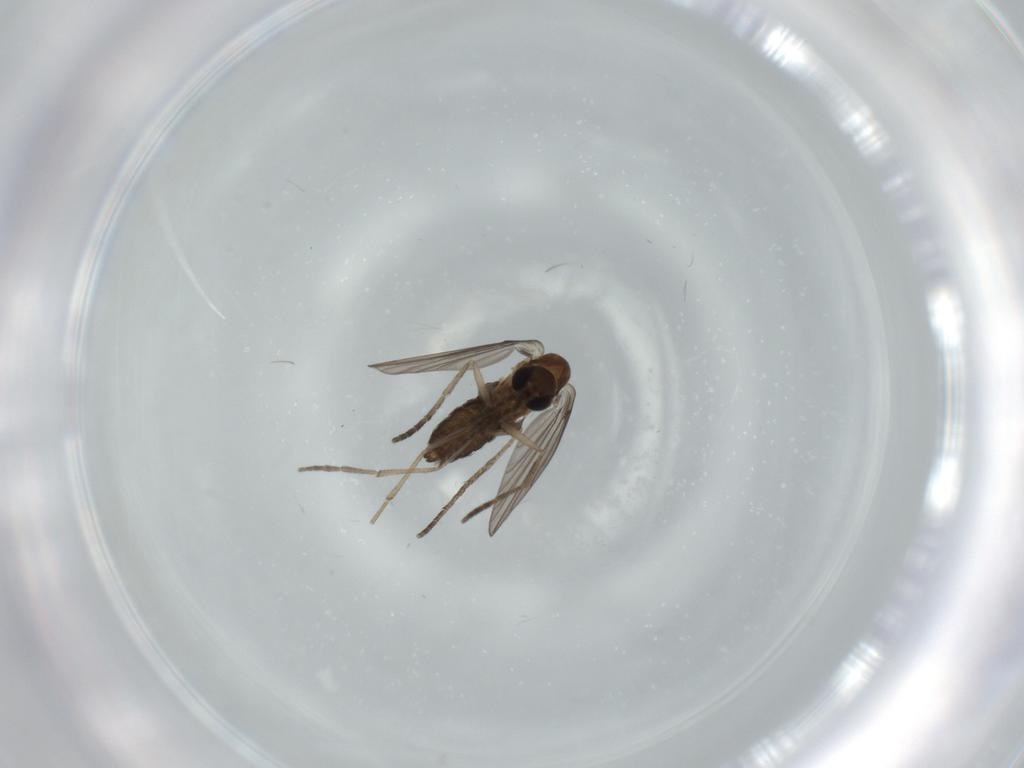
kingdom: Animalia
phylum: Arthropoda
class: Insecta
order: Diptera
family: Psychodidae
